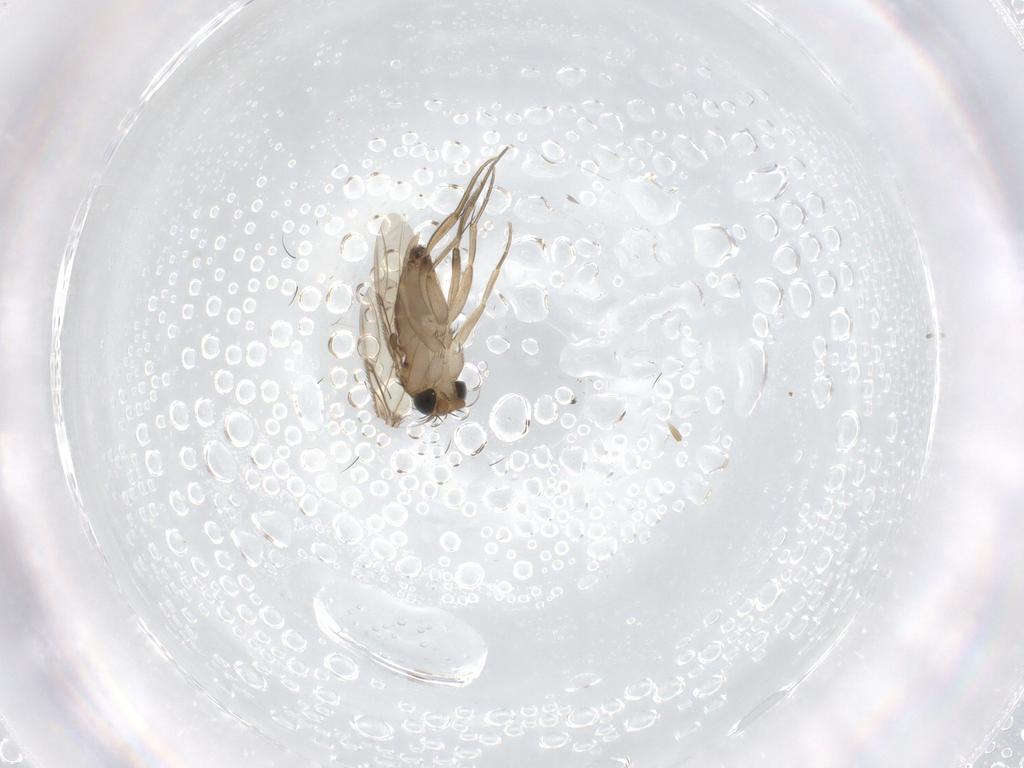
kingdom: Animalia
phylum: Arthropoda
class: Insecta
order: Diptera
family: Phoridae
